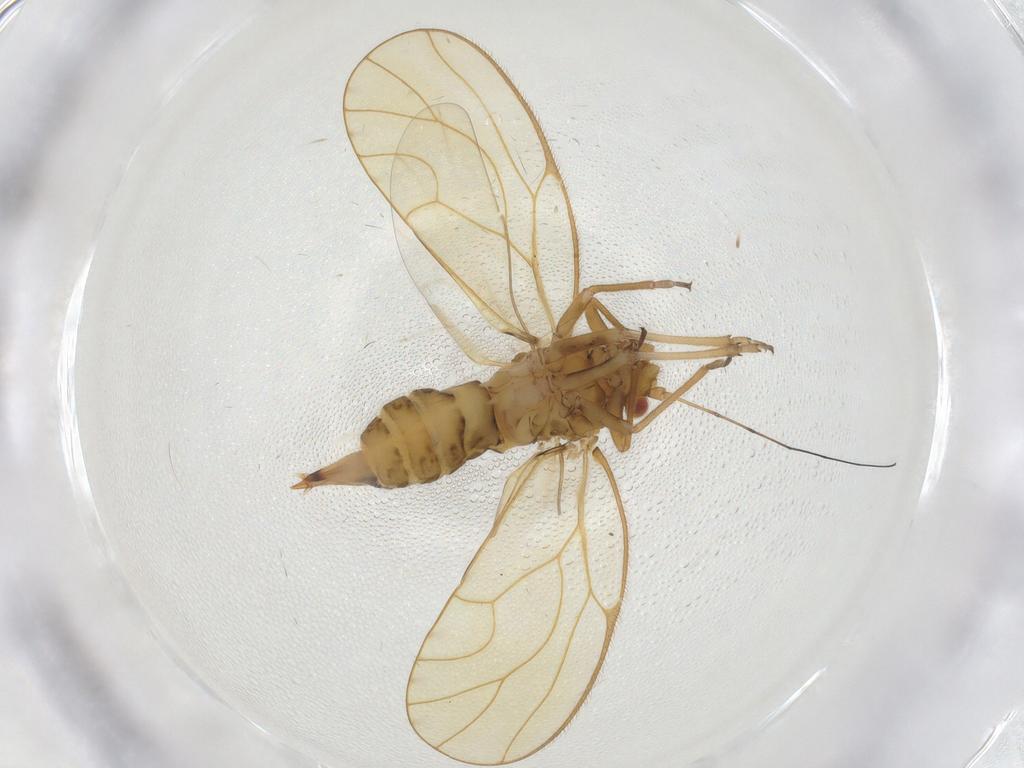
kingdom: Animalia
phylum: Arthropoda
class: Insecta
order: Hemiptera
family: Psyllidae
